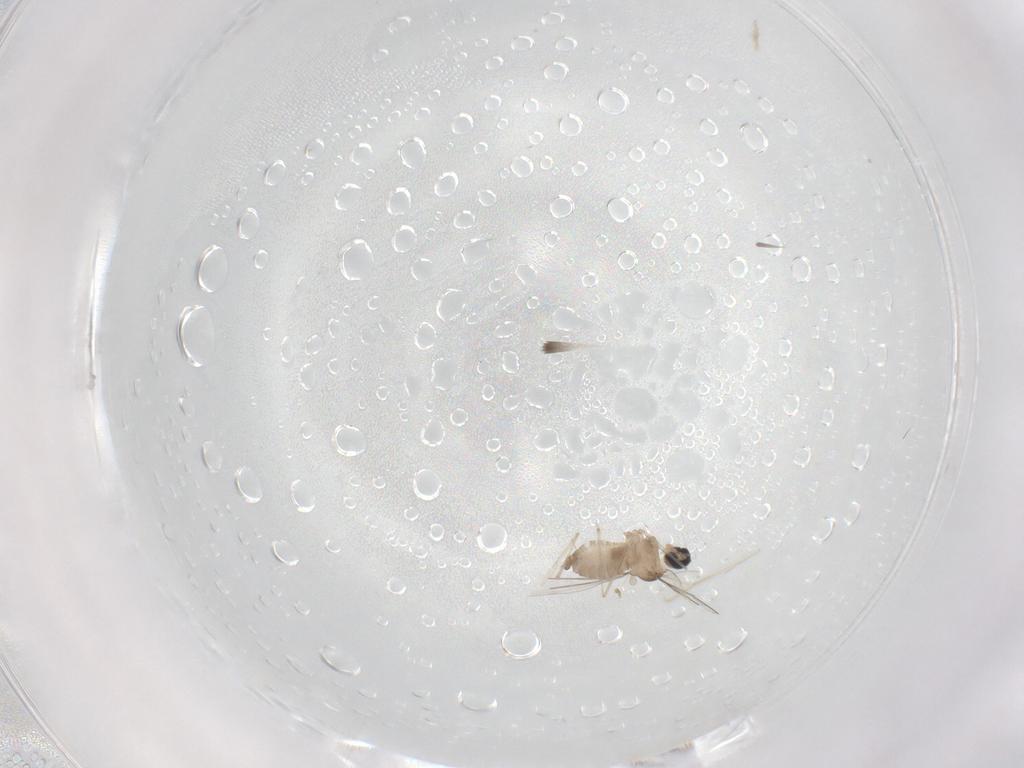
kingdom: Animalia
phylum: Arthropoda
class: Insecta
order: Diptera
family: Cecidomyiidae
